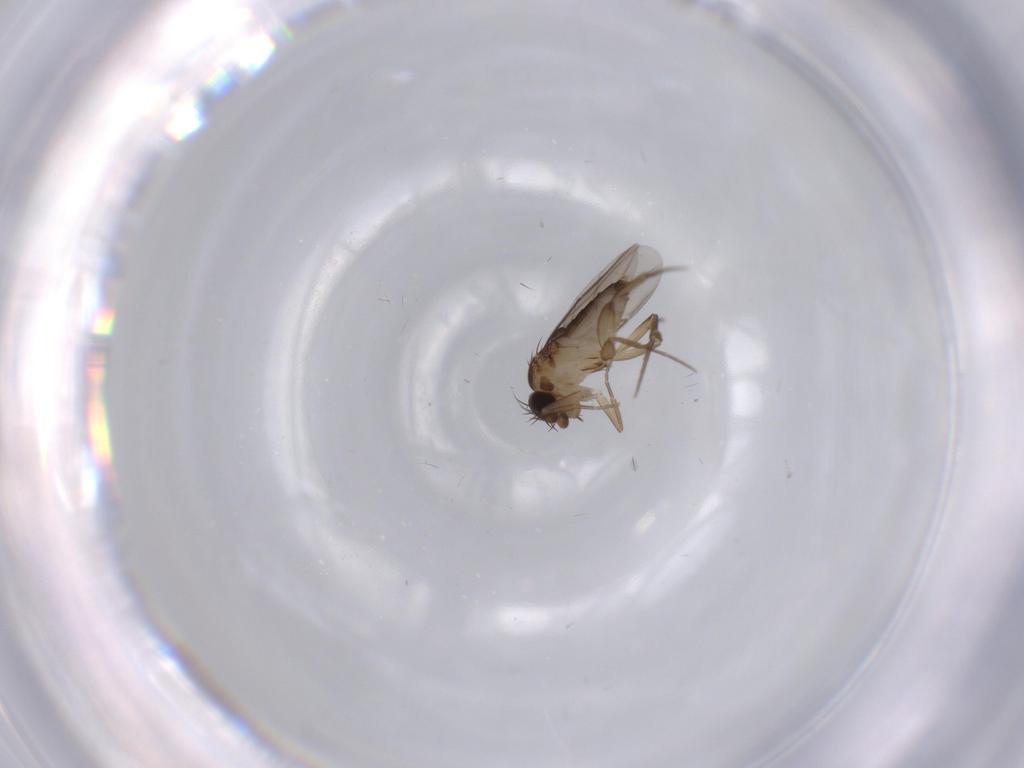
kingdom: Animalia
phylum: Arthropoda
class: Insecta
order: Diptera
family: Phoridae
